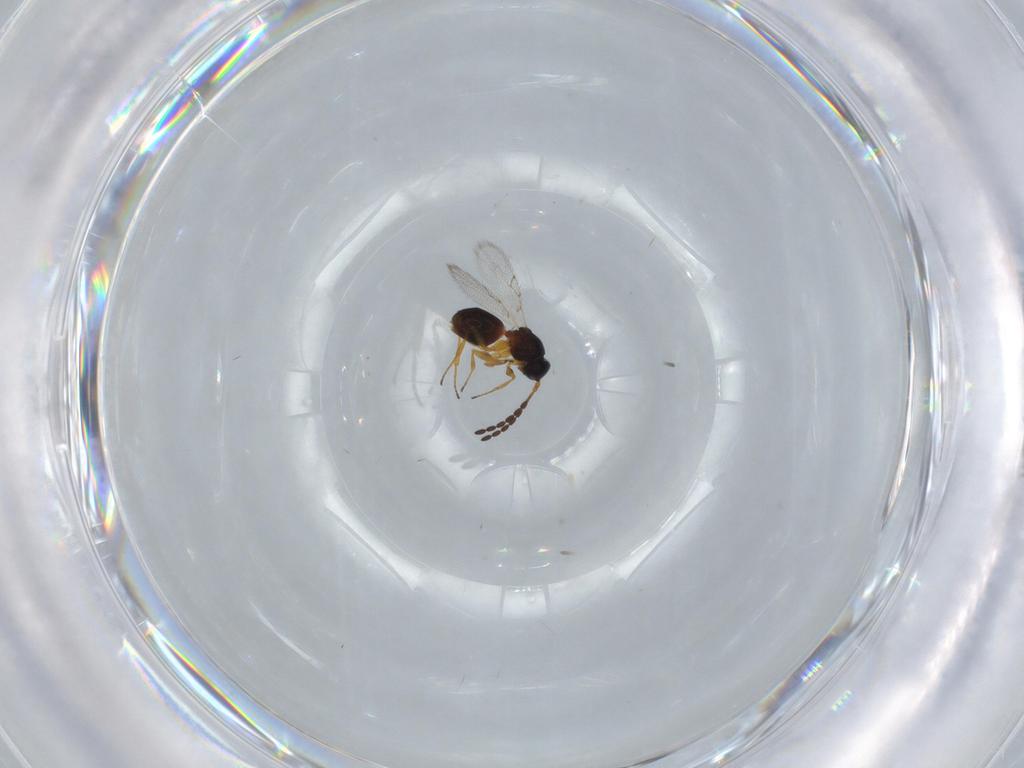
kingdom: Animalia
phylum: Arthropoda
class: Insecta
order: Hymenoptera
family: Figitidae
